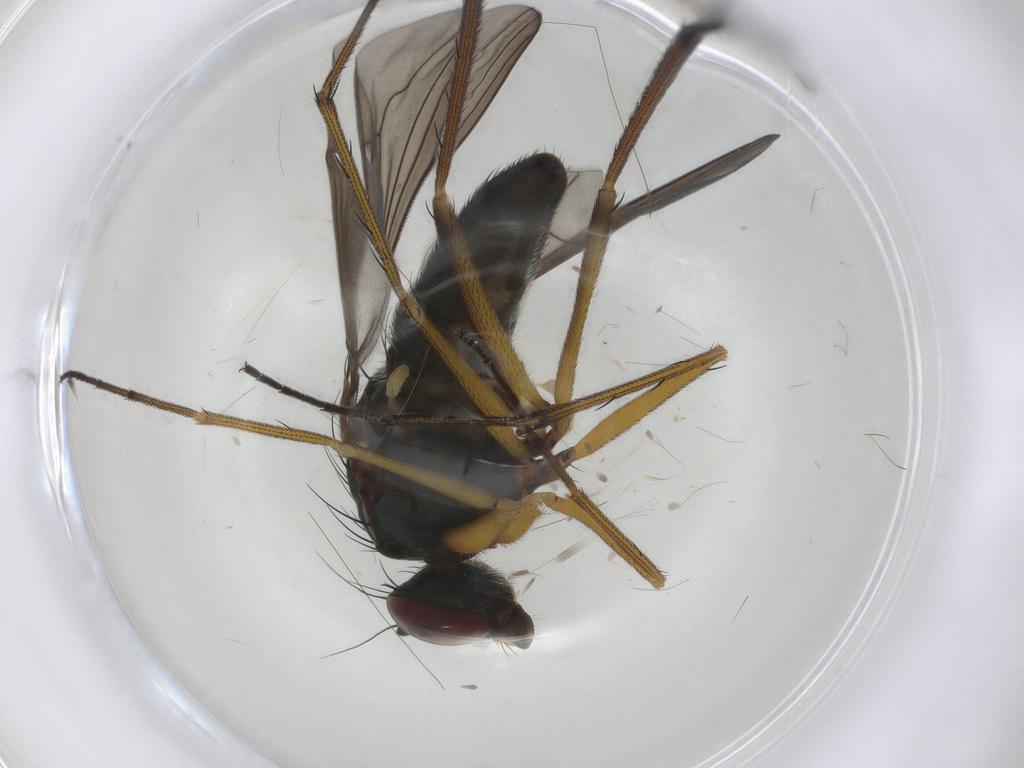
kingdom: Animalia
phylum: Arthropoda
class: Insecta
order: Diptera
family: Dolichopodidae
